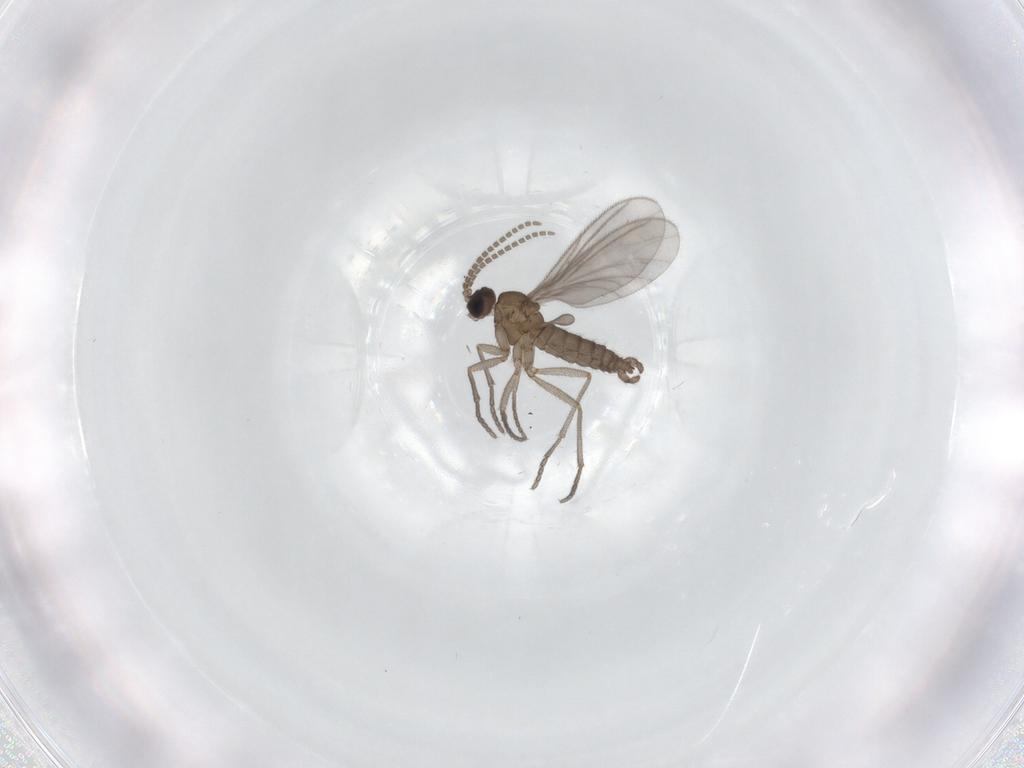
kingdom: Animalia
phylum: Arthropoda
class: Insecta
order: Diptera
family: Sciaridae
